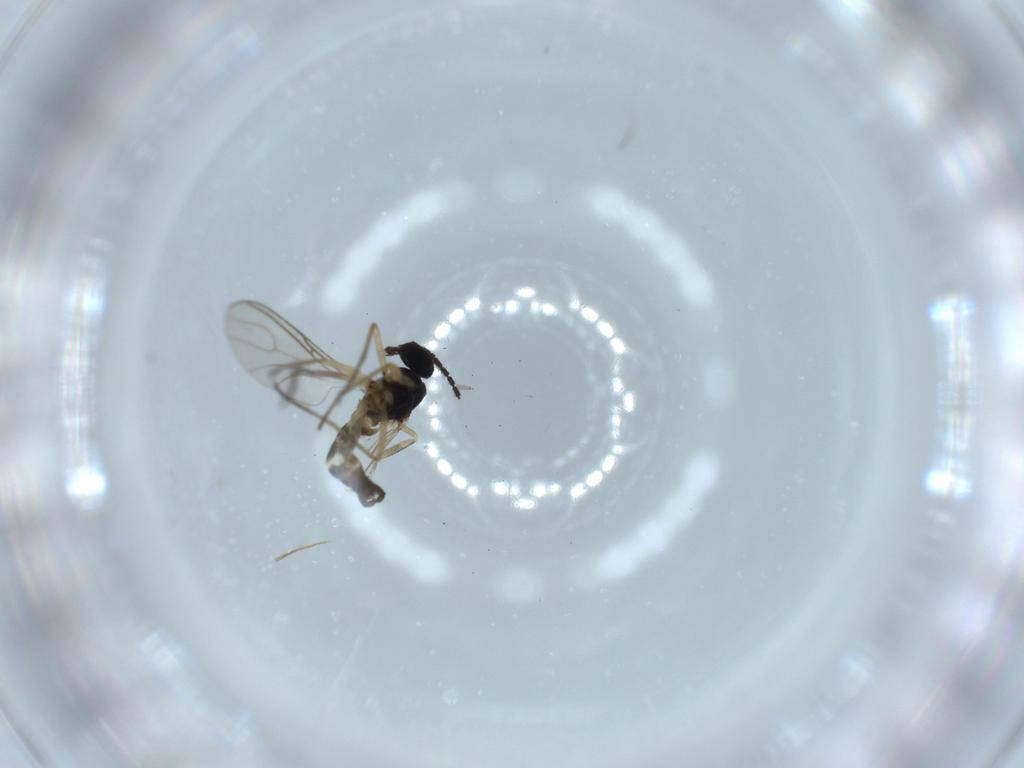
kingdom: Animalia
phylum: Arthropoda
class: Insecta
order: Diptera
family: Sciaridae
